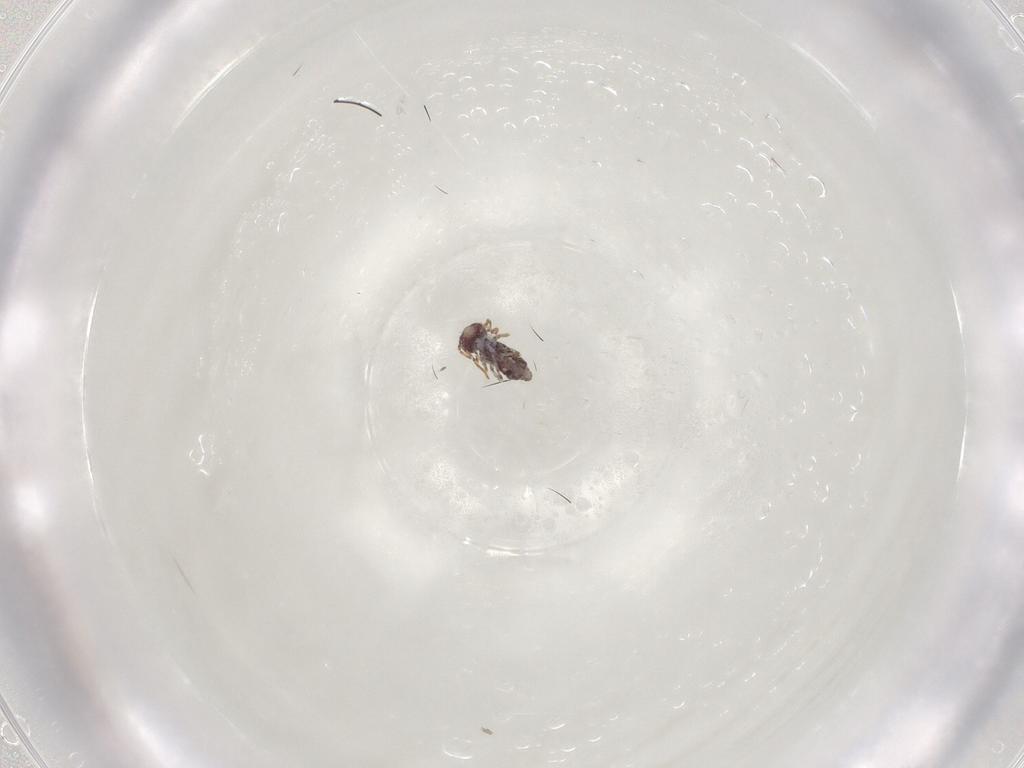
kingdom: Animalia
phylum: Arthropoda
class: Collembola
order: Symphypleona
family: Bourletiellidae
